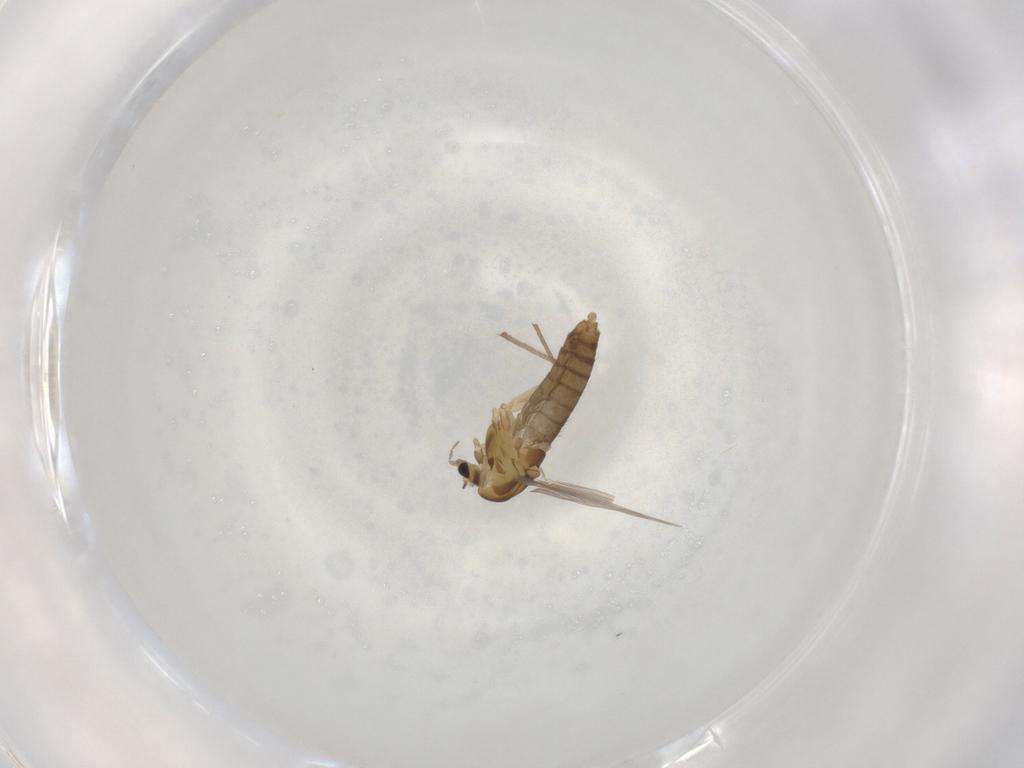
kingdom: Animalia
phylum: Arthropoda
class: Insecta
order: Diptera
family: Chironomidae
